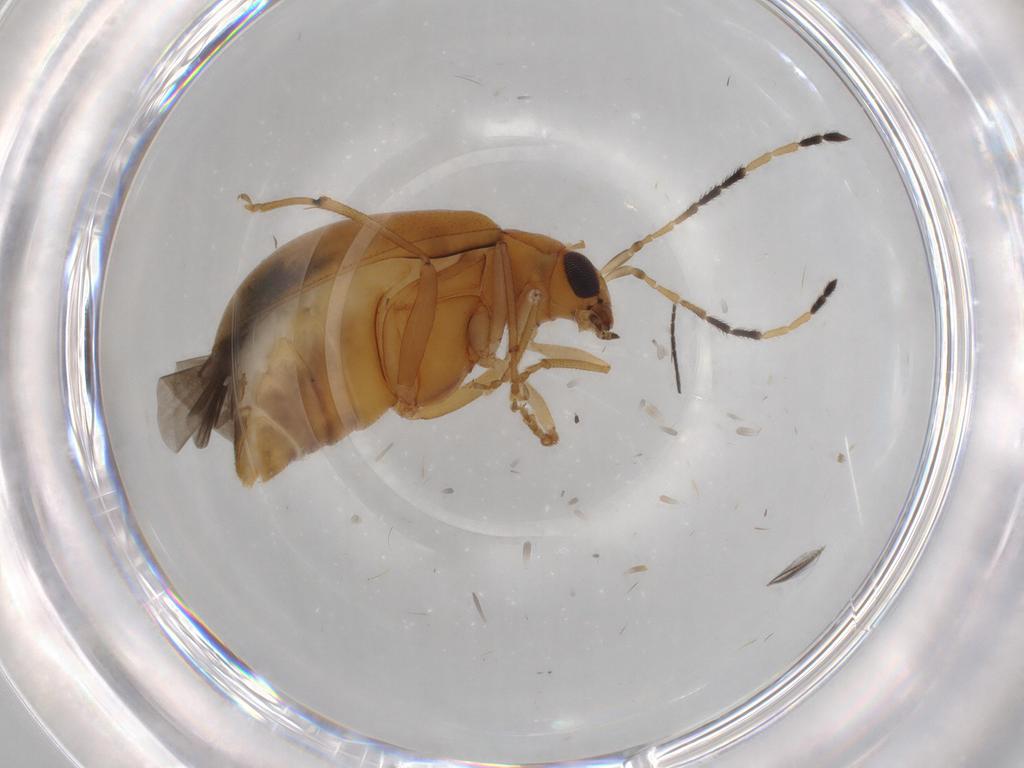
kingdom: Animalia
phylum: Arthropoda
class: Insecta
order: Coleoptera
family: Chrysomelidae
